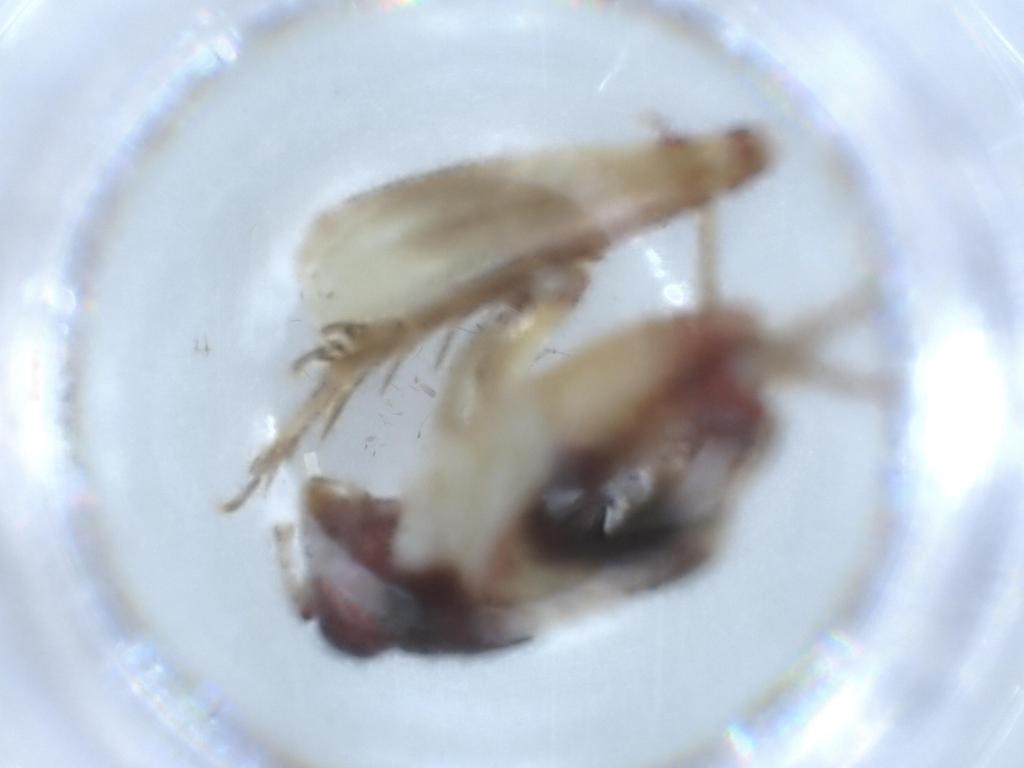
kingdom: Animalia
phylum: Arthropoda
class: Insecta
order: Orthoptera
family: Trigonidiidae
